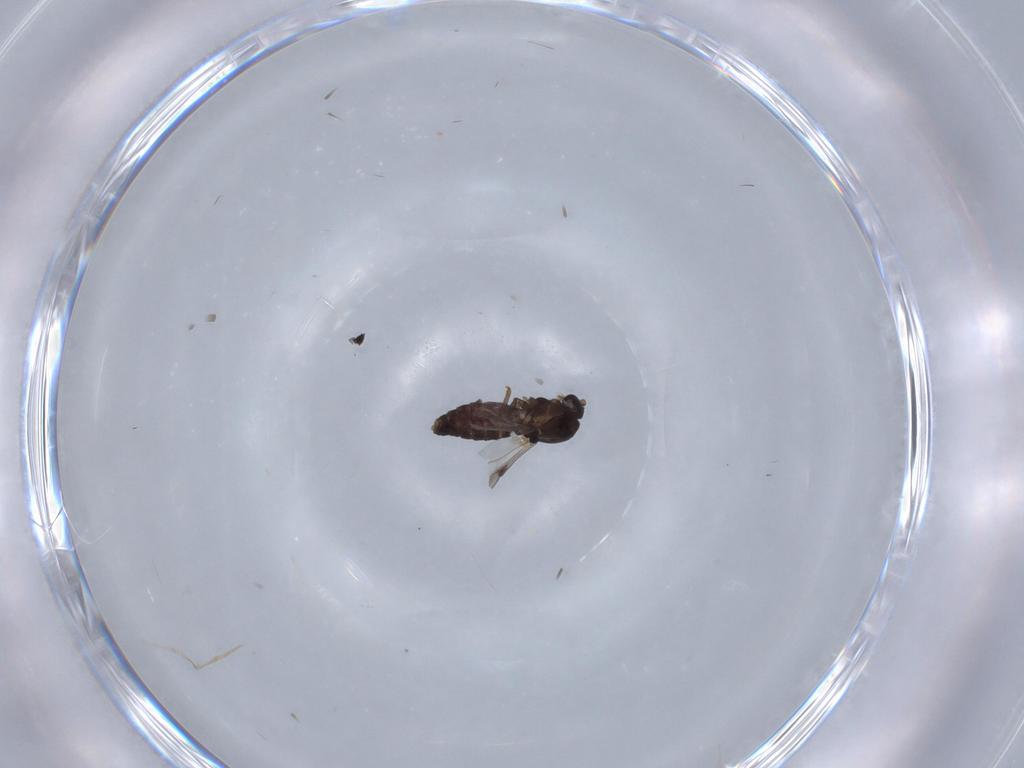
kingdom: Animalia
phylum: Arthropoda
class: Insecta
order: Diptera
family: Ceratopogonidae
